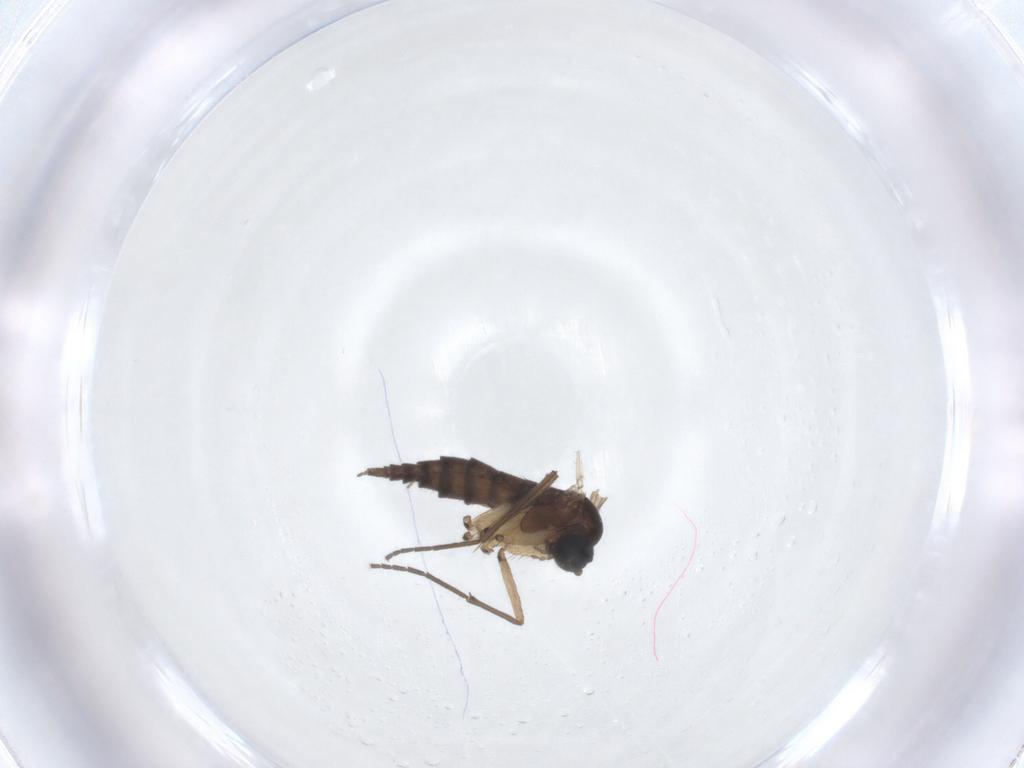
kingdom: Animalia
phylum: Arthropoda
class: Insecta
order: Diptera
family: Sciaridae
